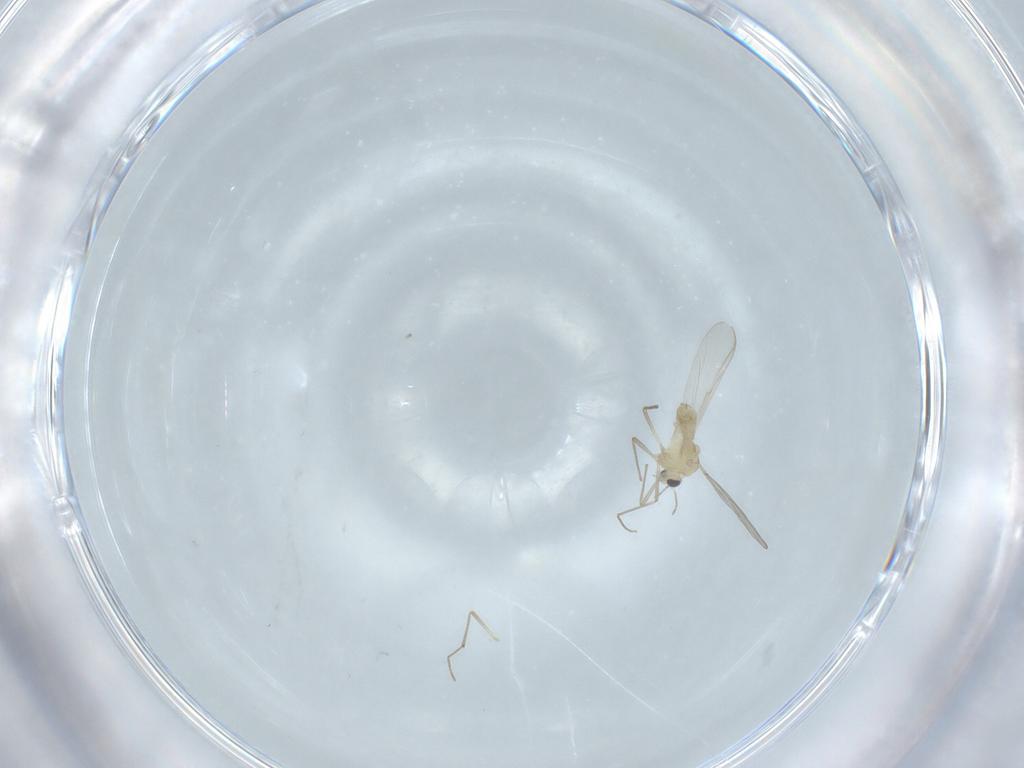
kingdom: Animalia
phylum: Arthropoda
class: Insecta
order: Diptera
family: Chironomidae
